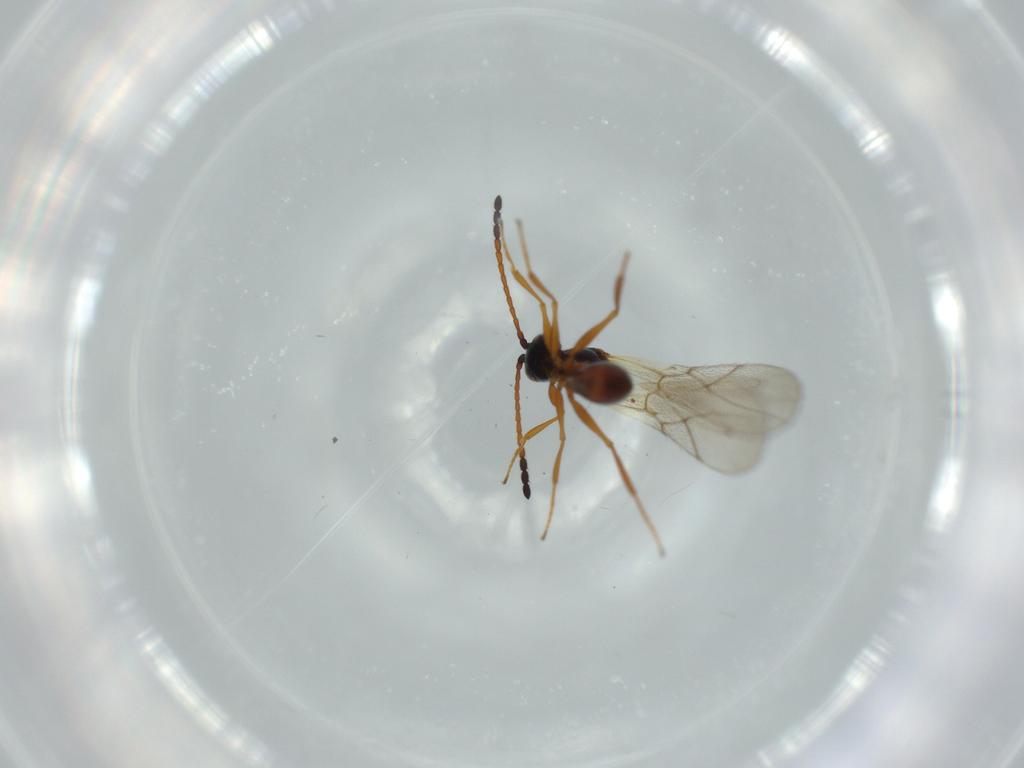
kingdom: Animalia
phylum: Arthropoda
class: Insecta
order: Hymenoptera
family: Figitidae
